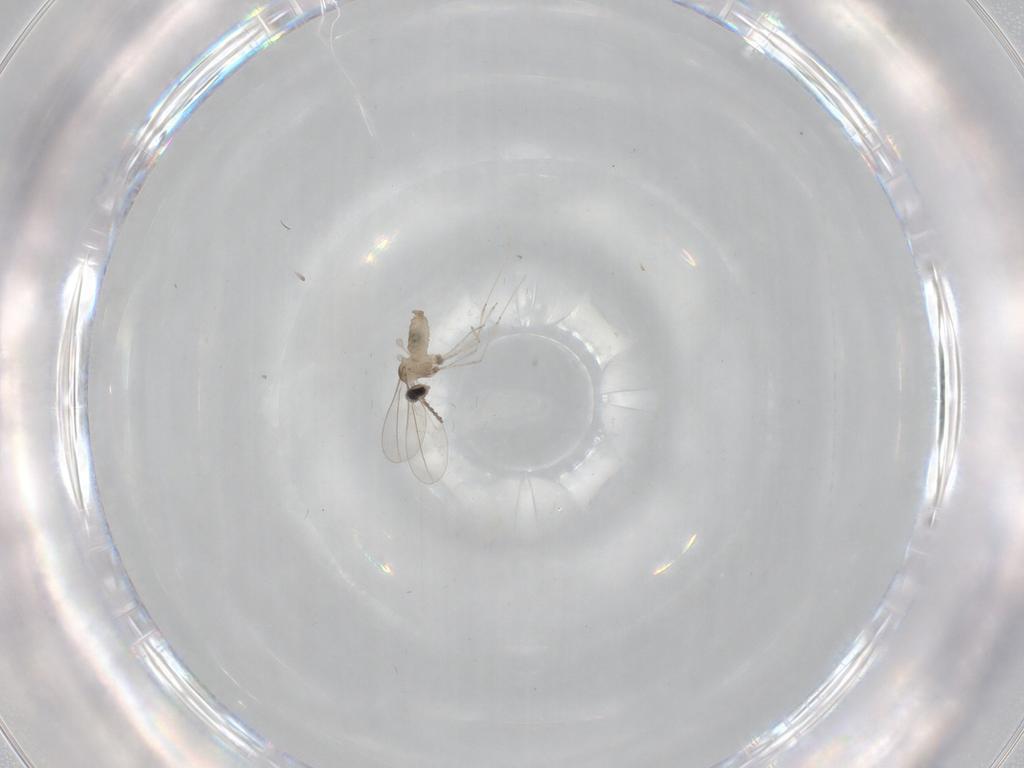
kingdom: Animalia
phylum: Arthropoda
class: Insecta
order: Diptera
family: Cecidomyiidae
